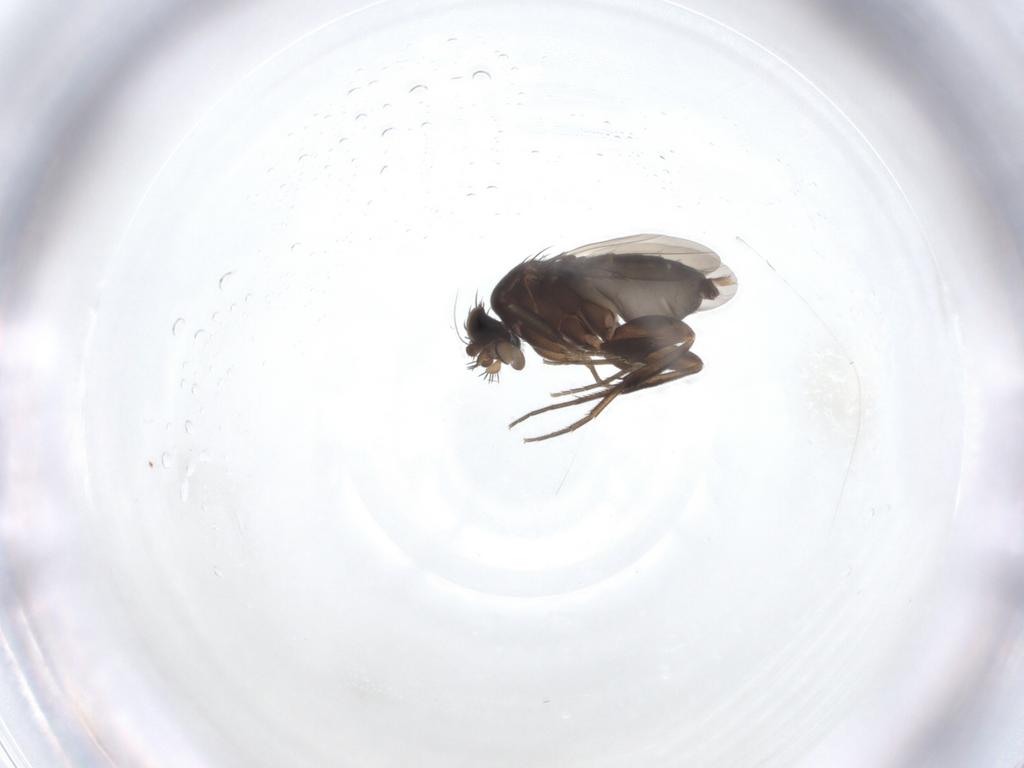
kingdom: Animalia
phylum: Arthropoda
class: Insecta
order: Diptera
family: Phoridae
